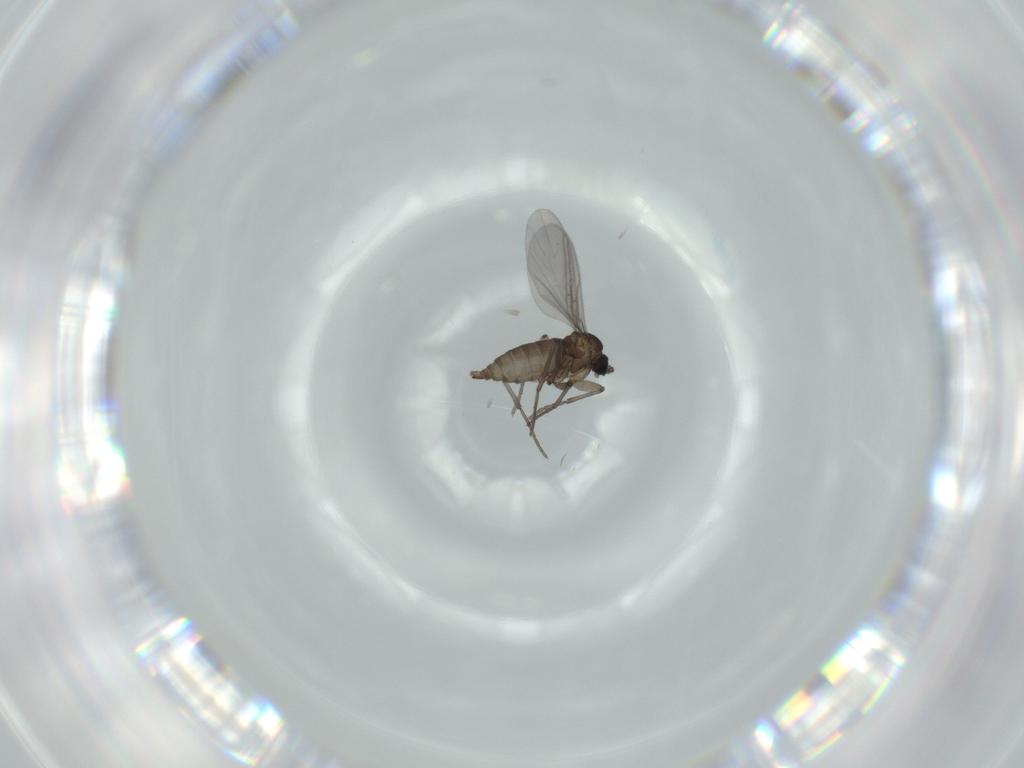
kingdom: Animalia
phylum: Arthropoda
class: Insecta
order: Diptera
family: Sciaridae
